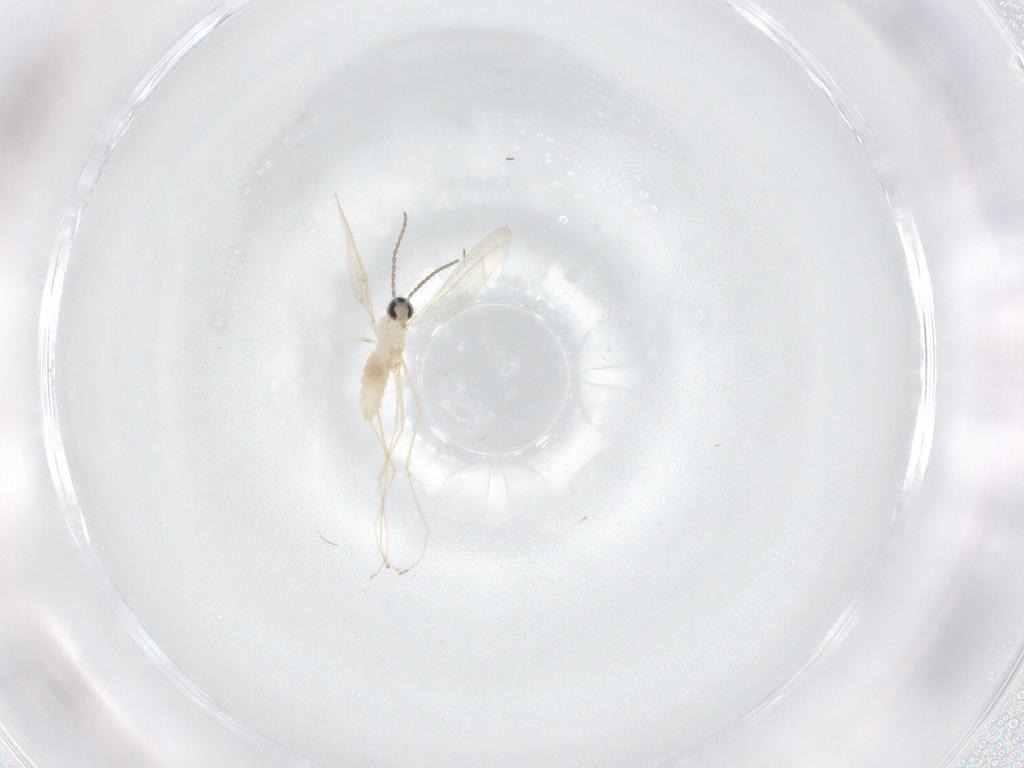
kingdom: Animalia
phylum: Arthropoda
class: Insecta
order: Diptera
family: Cecidomyiidae
